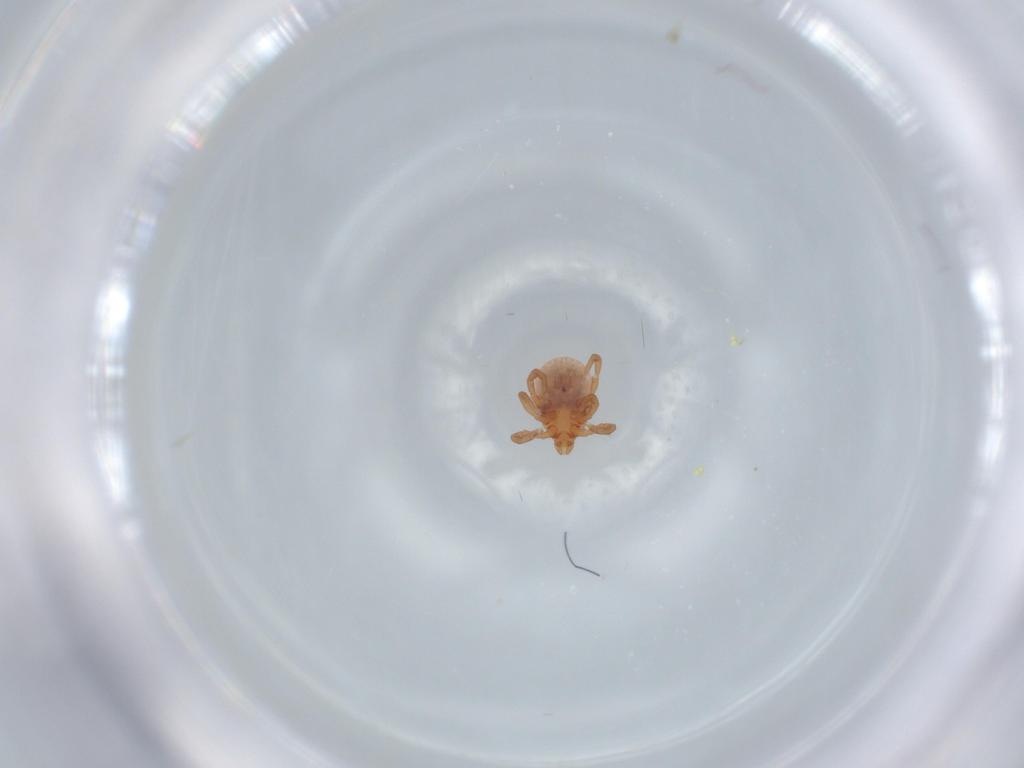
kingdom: Animalia
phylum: Arthropoda
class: Arachnida
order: Ixodida
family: Ixodidae
